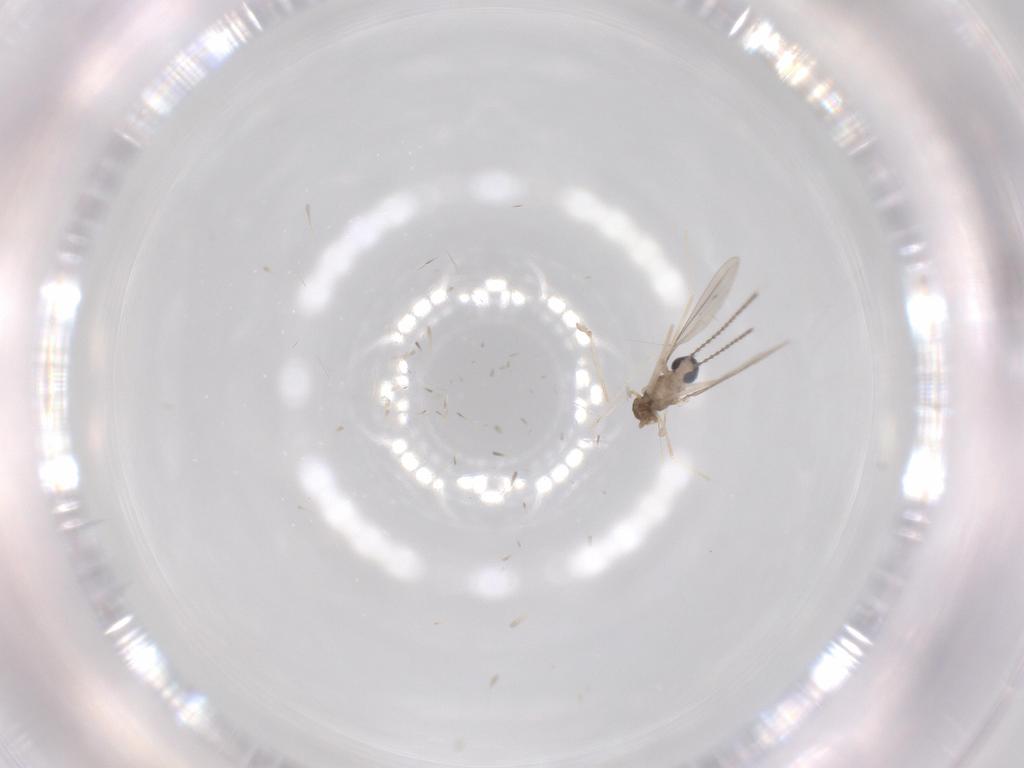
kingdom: Animalia
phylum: Arthropoda
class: Insecta
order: Diptera
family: Cecidomyiidae
